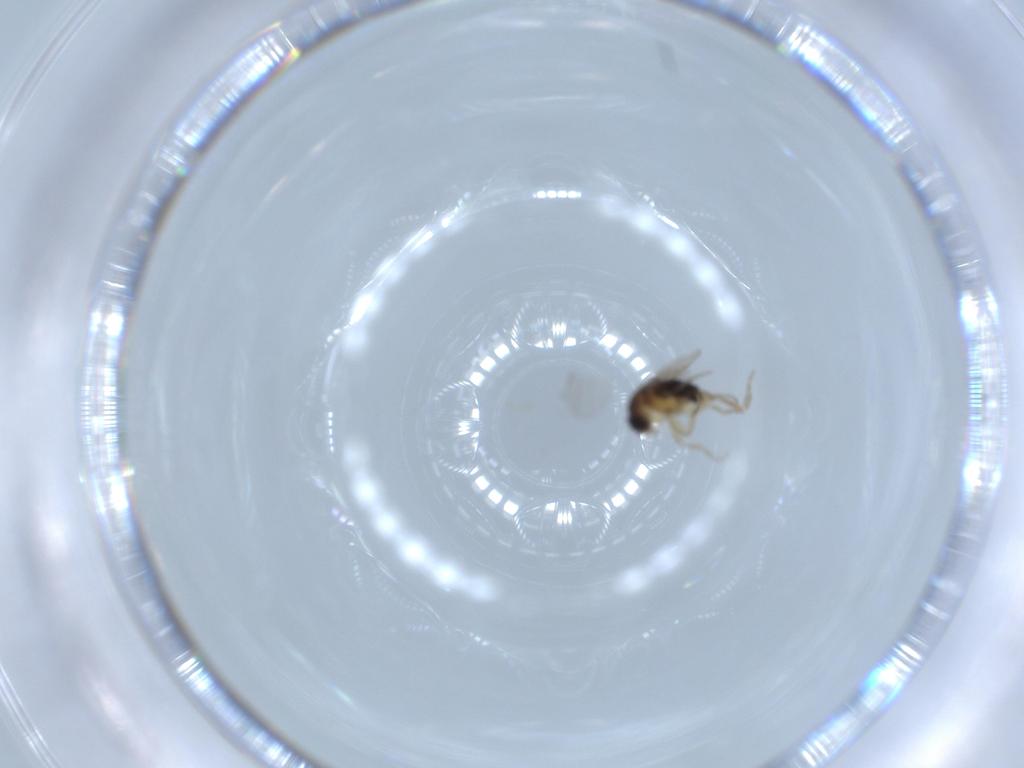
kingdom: Animalia
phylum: Arthropoda
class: Insecta
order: Diptera
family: Phoridae
